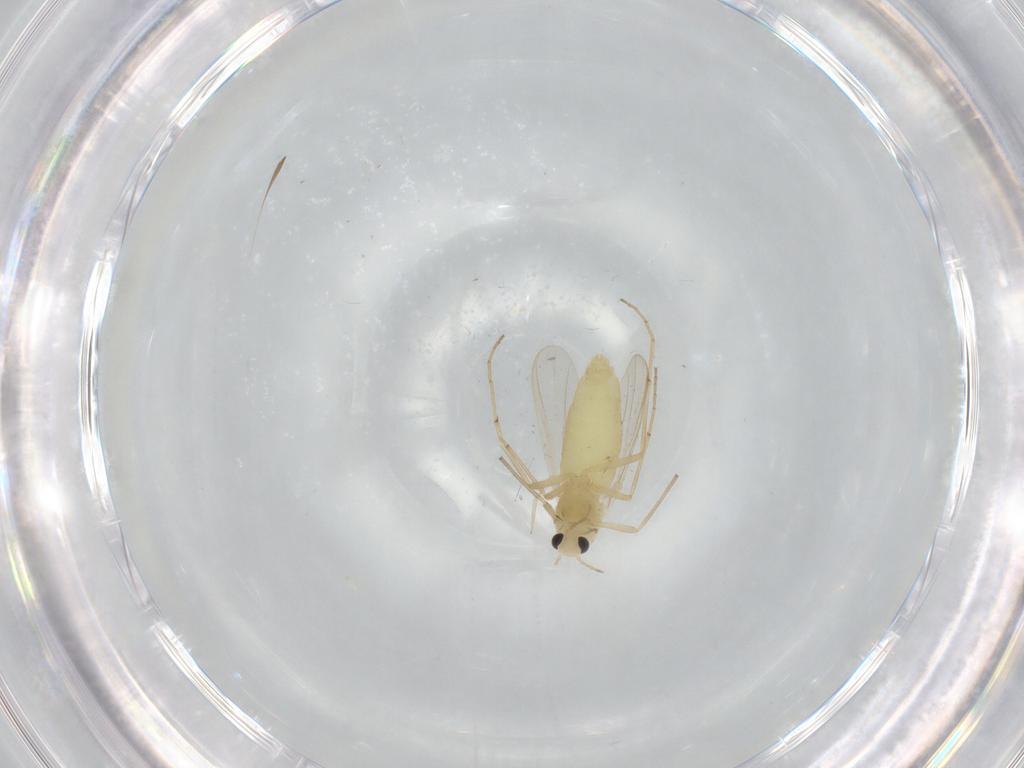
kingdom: Animalia
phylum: Arthropoda
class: Insecta
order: Diptera
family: Chironomidae
